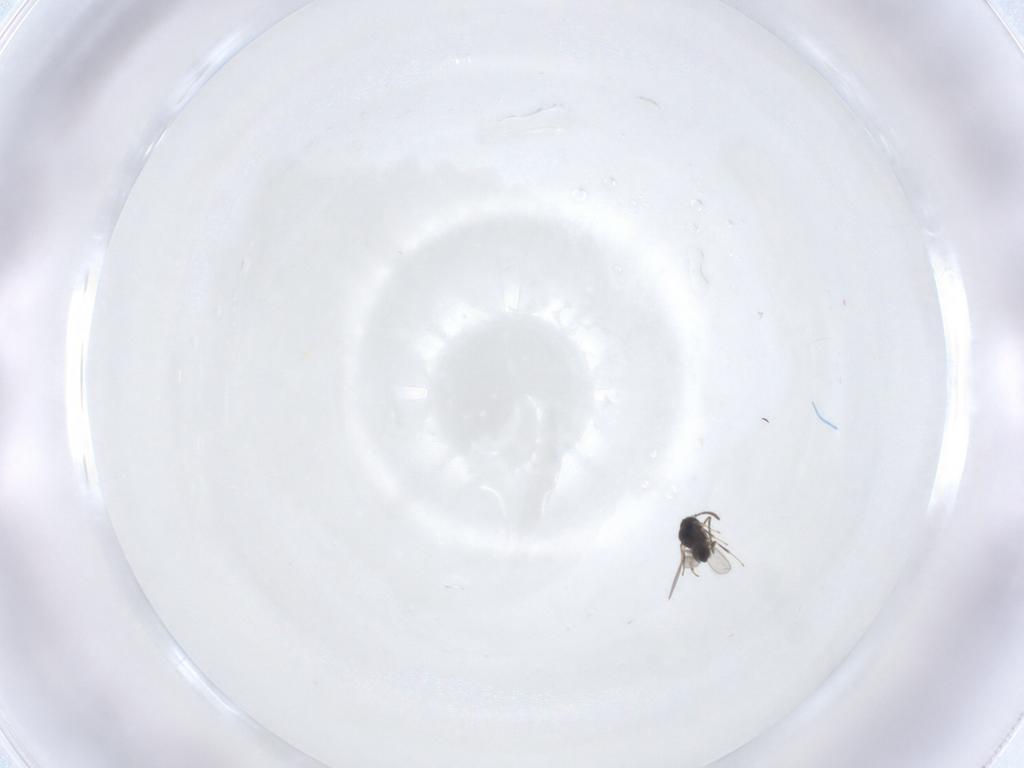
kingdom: Animalia
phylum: Arthropoda
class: Insecta
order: Hymenoptera
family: Scelionidae
